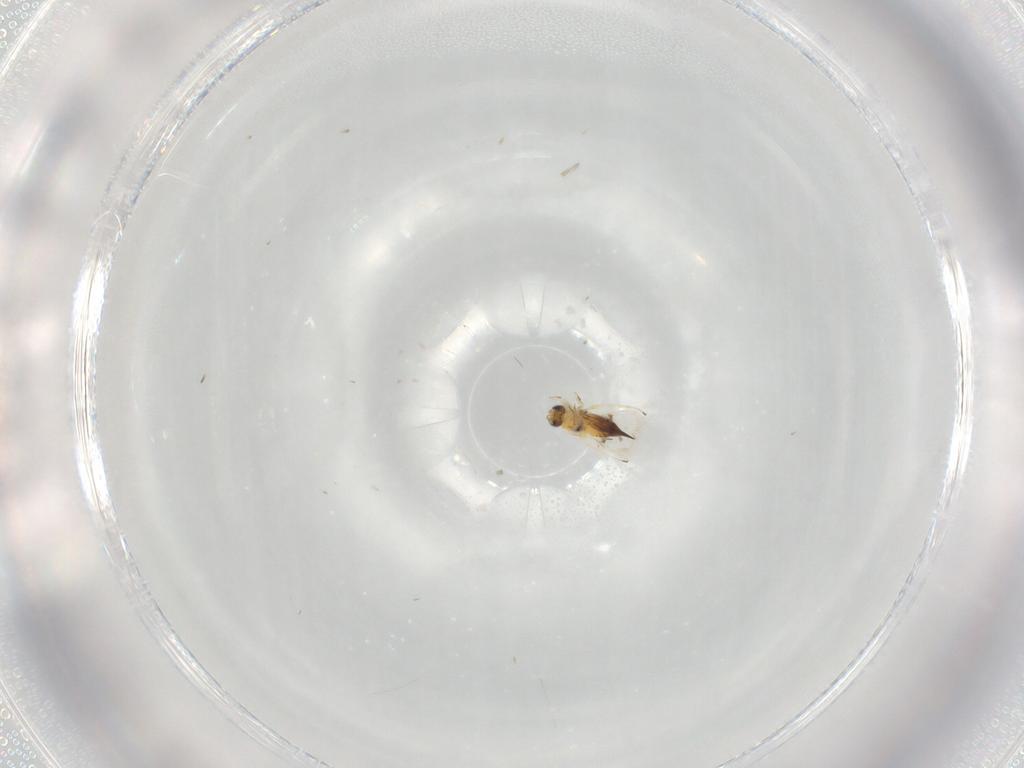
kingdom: Animalia
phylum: Arthropoda
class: Insecta
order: Hymenoptera
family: Trichogrammatidae
